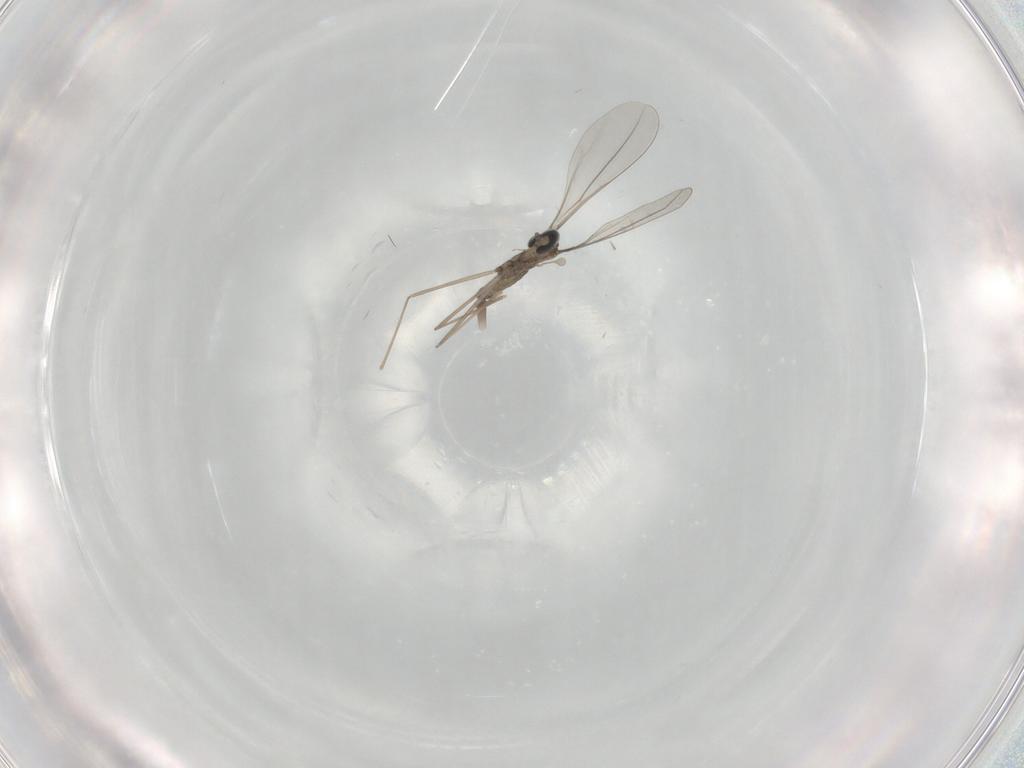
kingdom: Animalia
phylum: Arthropoda
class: Insecta
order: Diptera
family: Cecidomyiidae
